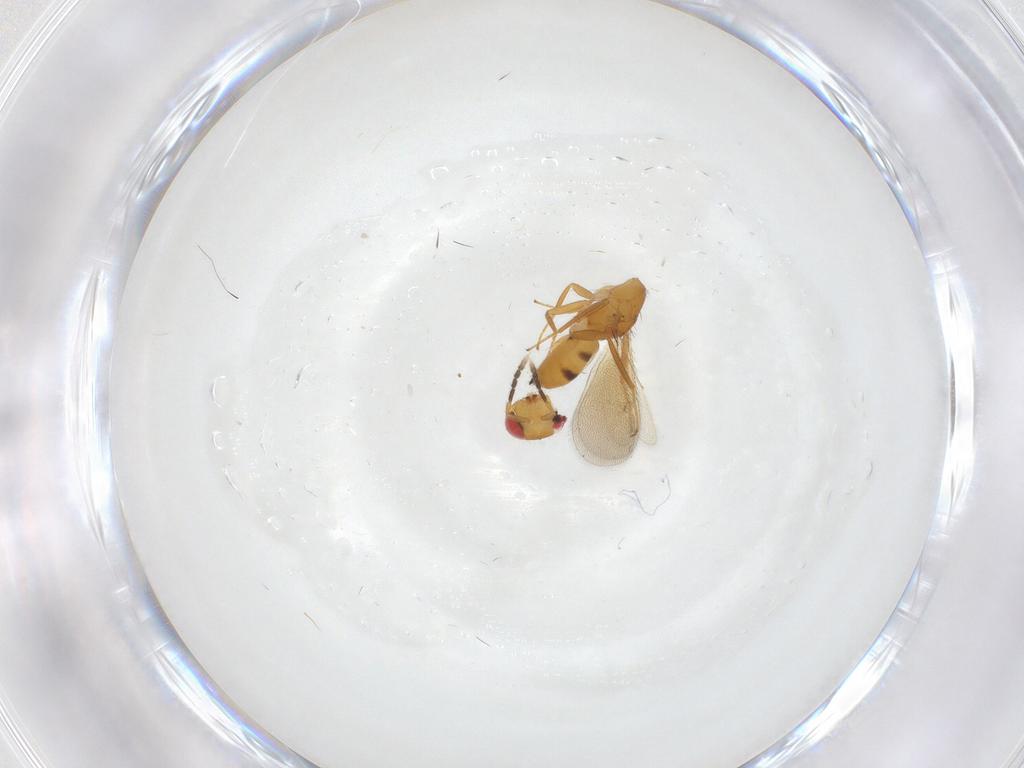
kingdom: Animalia
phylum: Arthropoda
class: Insecta
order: Hymenoptera
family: Eulophidae
